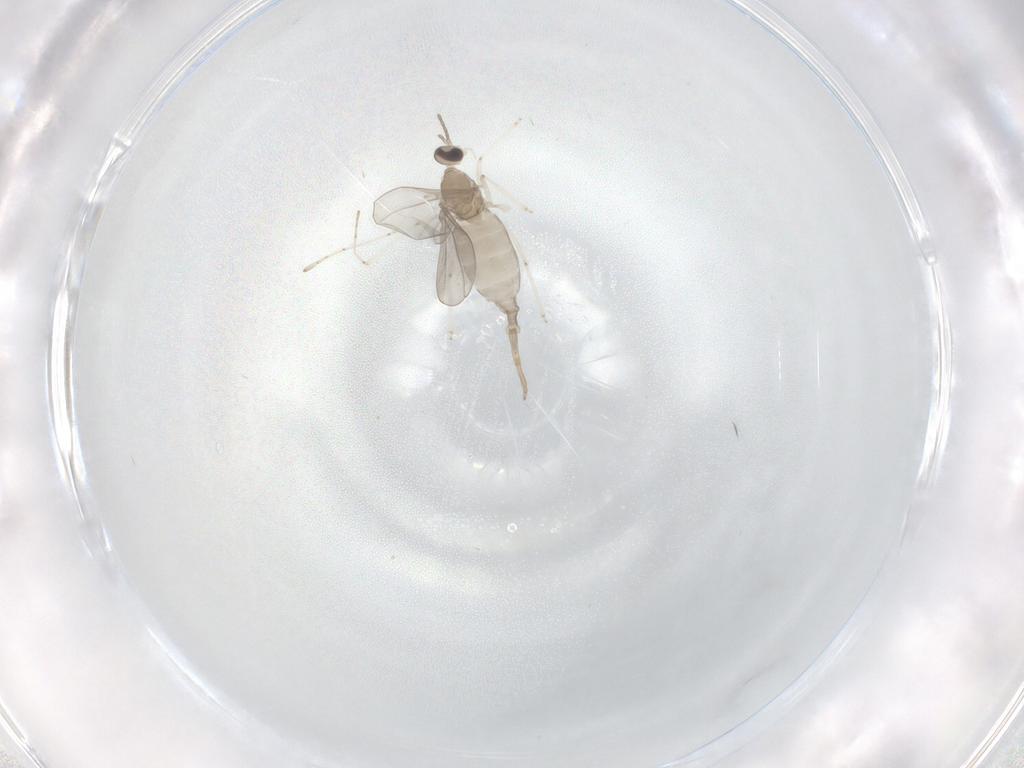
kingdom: Animalia
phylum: Arthropoda
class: Insecta
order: Diptera
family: Cecidomyiidae
